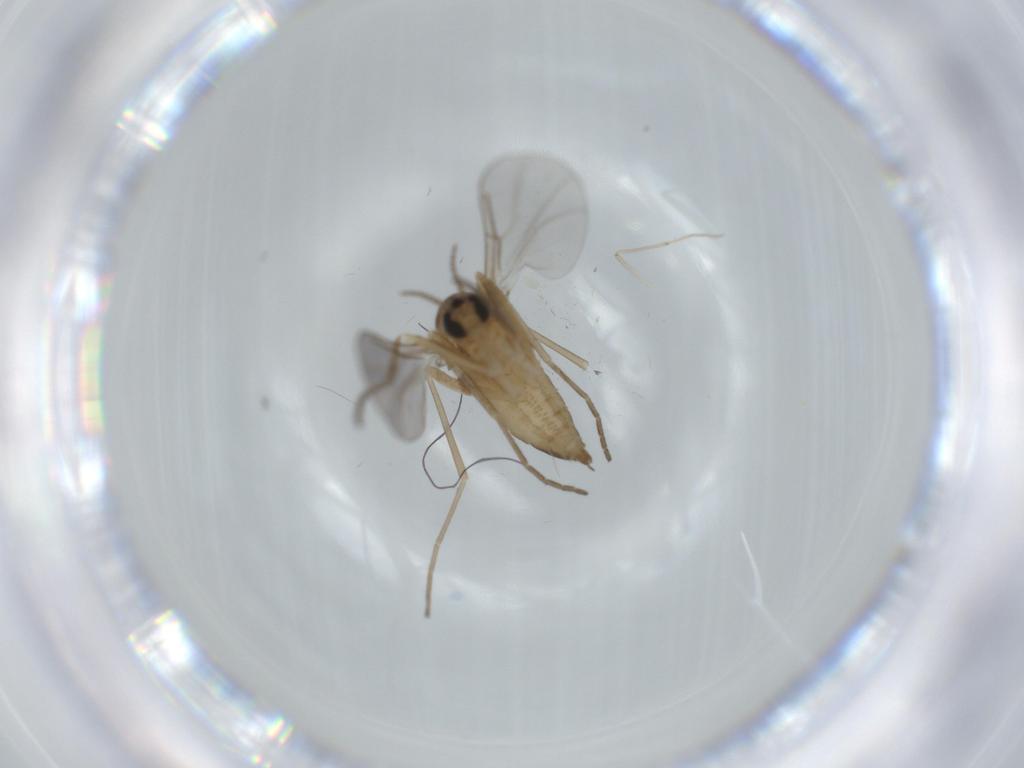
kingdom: Animalia
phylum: Arthropoda
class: Insecta
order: Diptera
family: Cecidomyiidae
